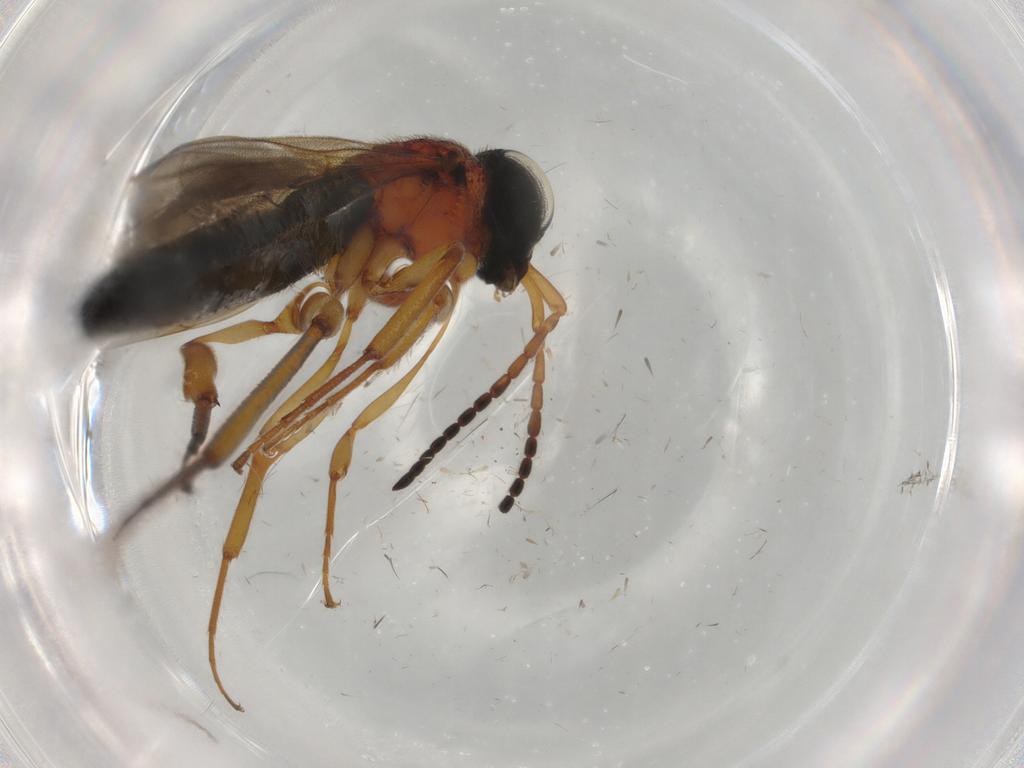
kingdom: Animalia
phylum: Arthropoda
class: Insecta
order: Hymenoptera
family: Scelionidae
